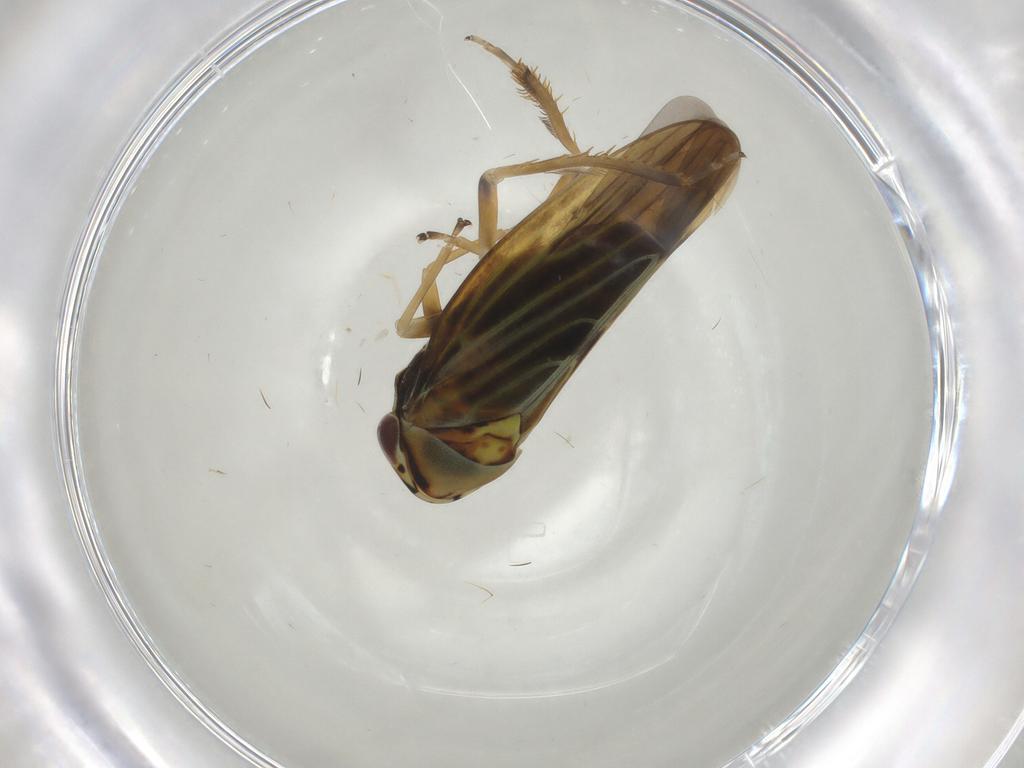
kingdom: Animalia
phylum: Arthropoda
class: Insecta
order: Hemiptera
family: Cicadellidae
